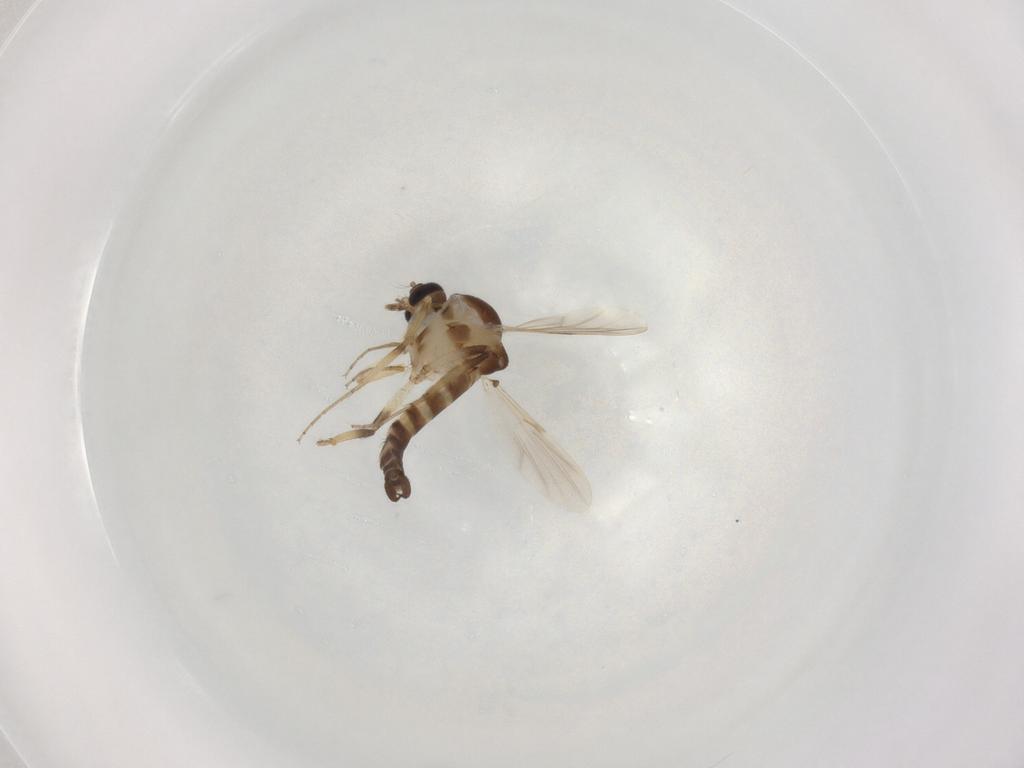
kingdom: Animalia
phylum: Arthropoda
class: Insecta
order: Diptera
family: Ceratopogonidae
